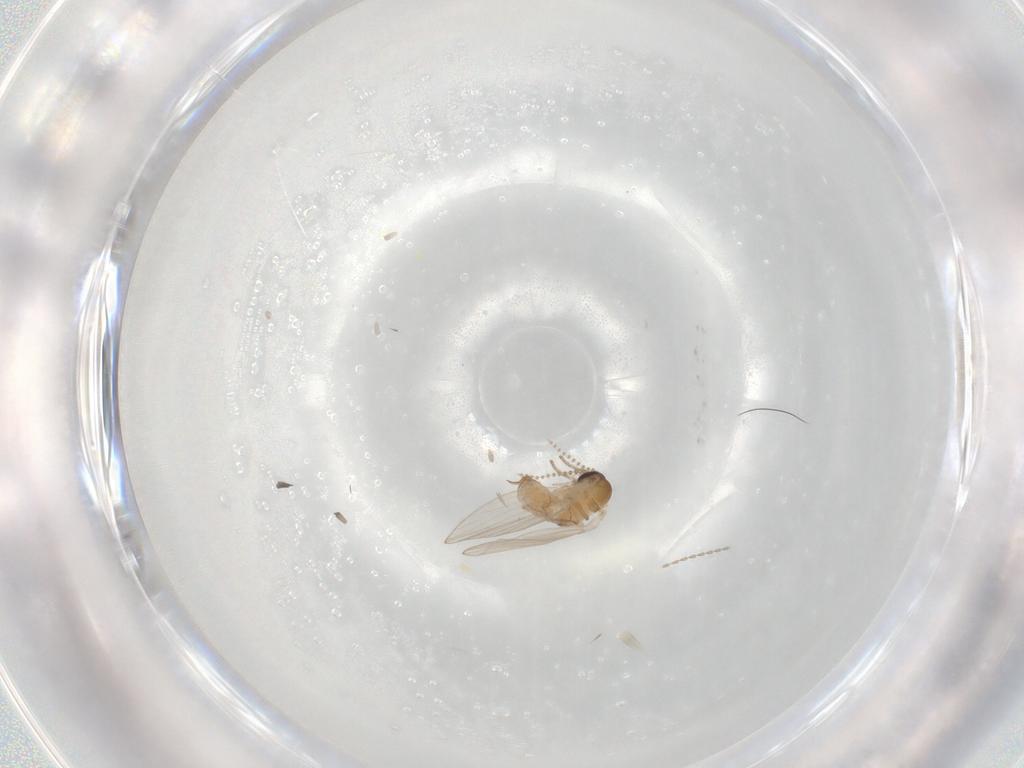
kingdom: Animalia
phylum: Arthropoda
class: Insecta
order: Diptera
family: Psychodidae
